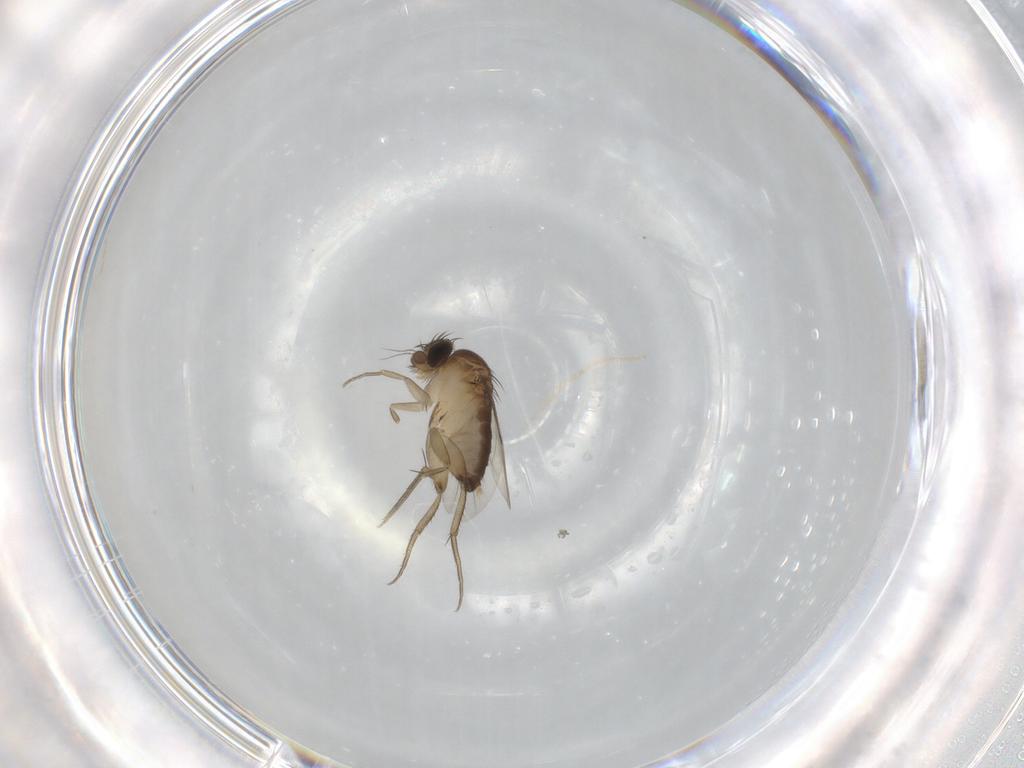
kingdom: Animalia
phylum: Arthropoda
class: Insecta
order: Diptera
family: Phoridae
